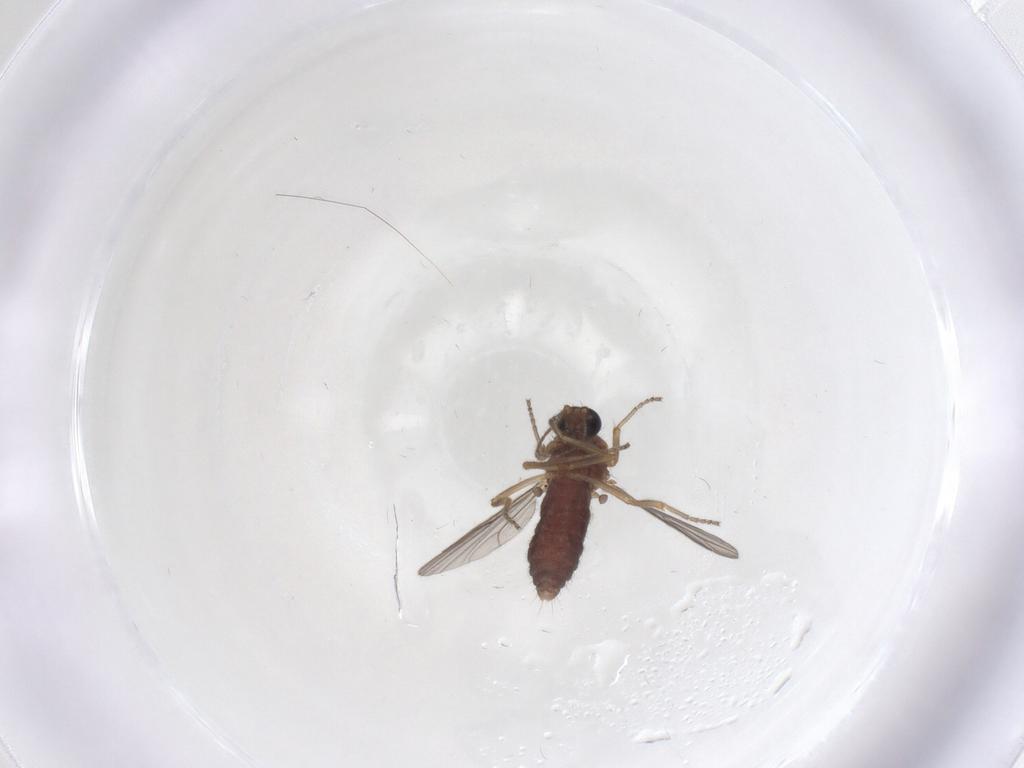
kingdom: Animalia
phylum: Arthropoda
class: Insecta
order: Diptera
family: Ceratopogonidae
